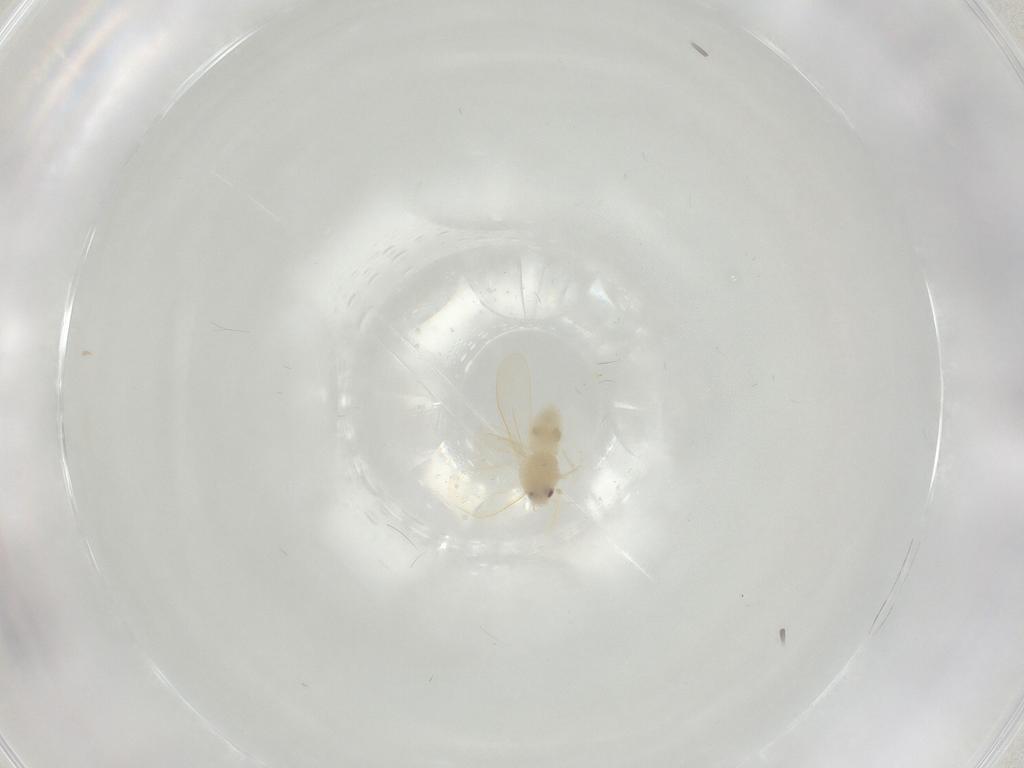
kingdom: Animalia
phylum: Arthropoda
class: Insecta
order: Hemiptera
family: Aleyrodidae
